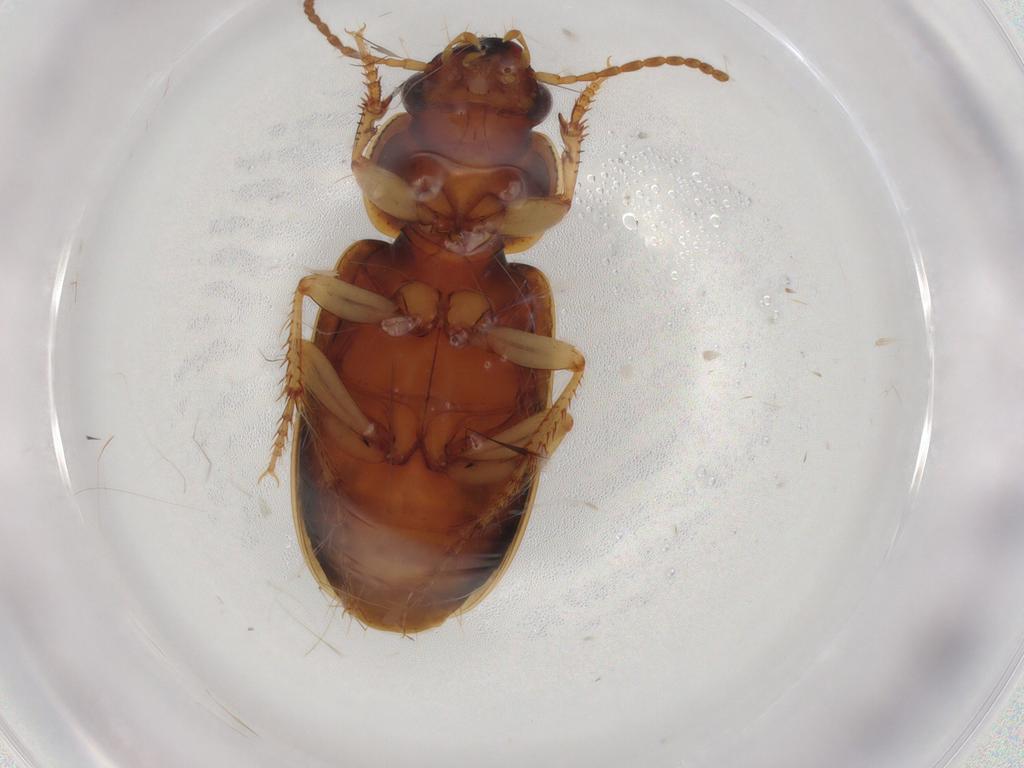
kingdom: Animalia
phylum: Arthropoda
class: Insecta
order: Coleoptera
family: Carabidae
